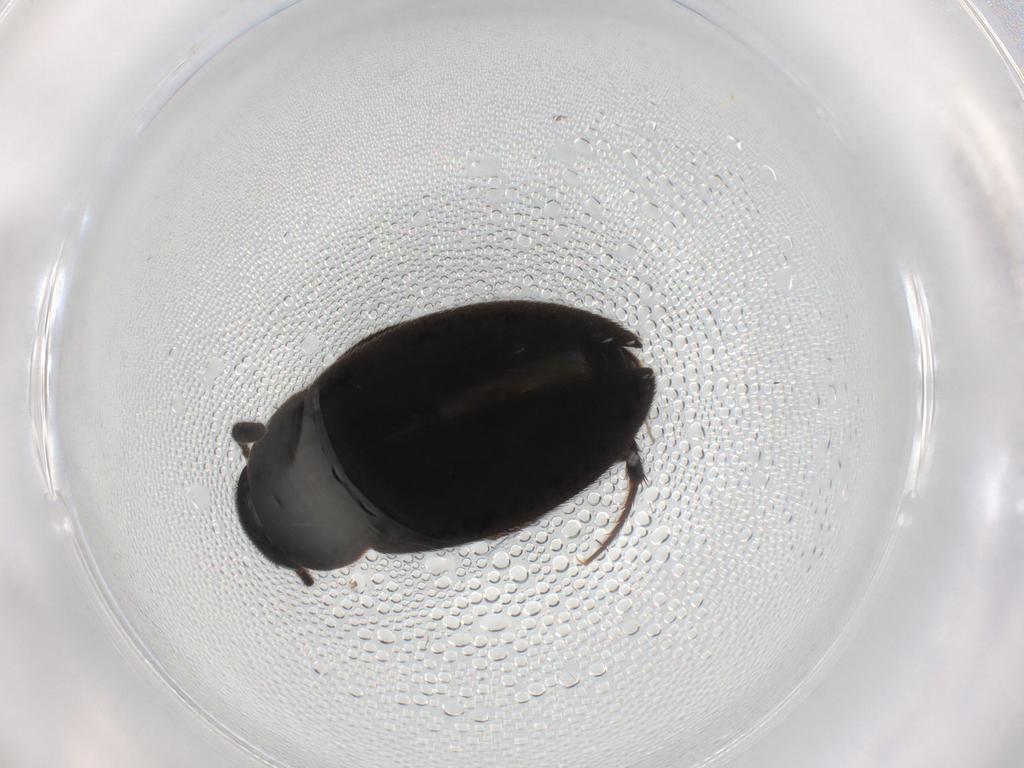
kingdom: Animalia
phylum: Arthropoda
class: Insecta
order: Coleoptera
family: Leiodidae
